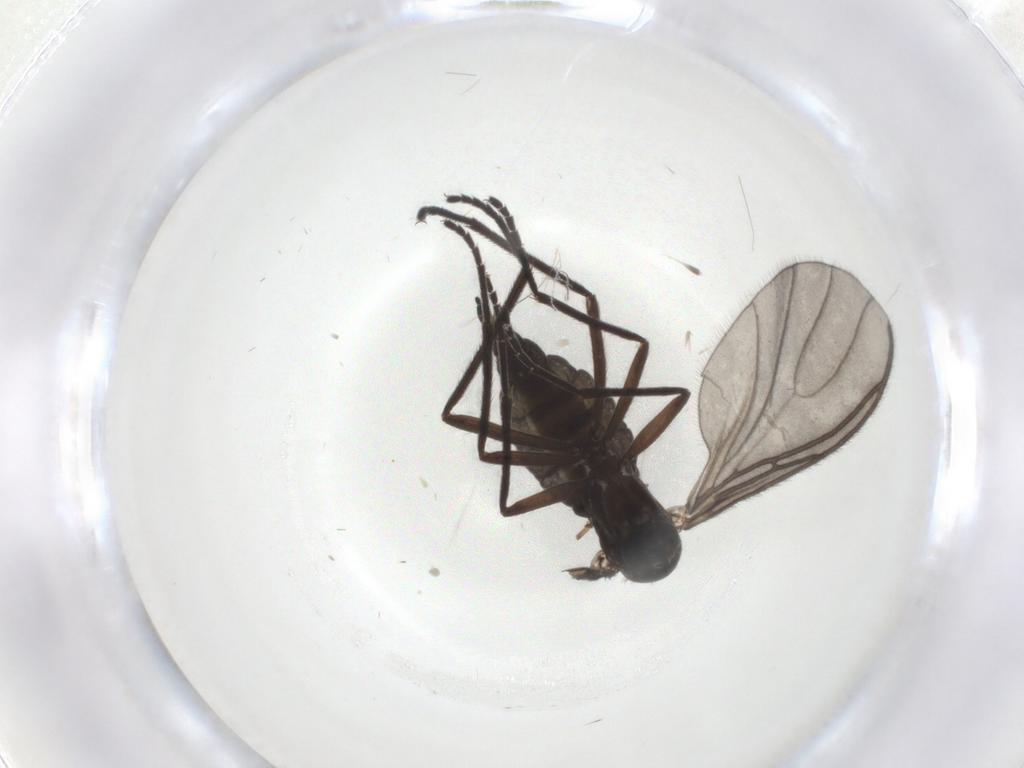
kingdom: Animalia
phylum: Arthropoda
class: Insecta
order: Diptera
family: Sciaridae
